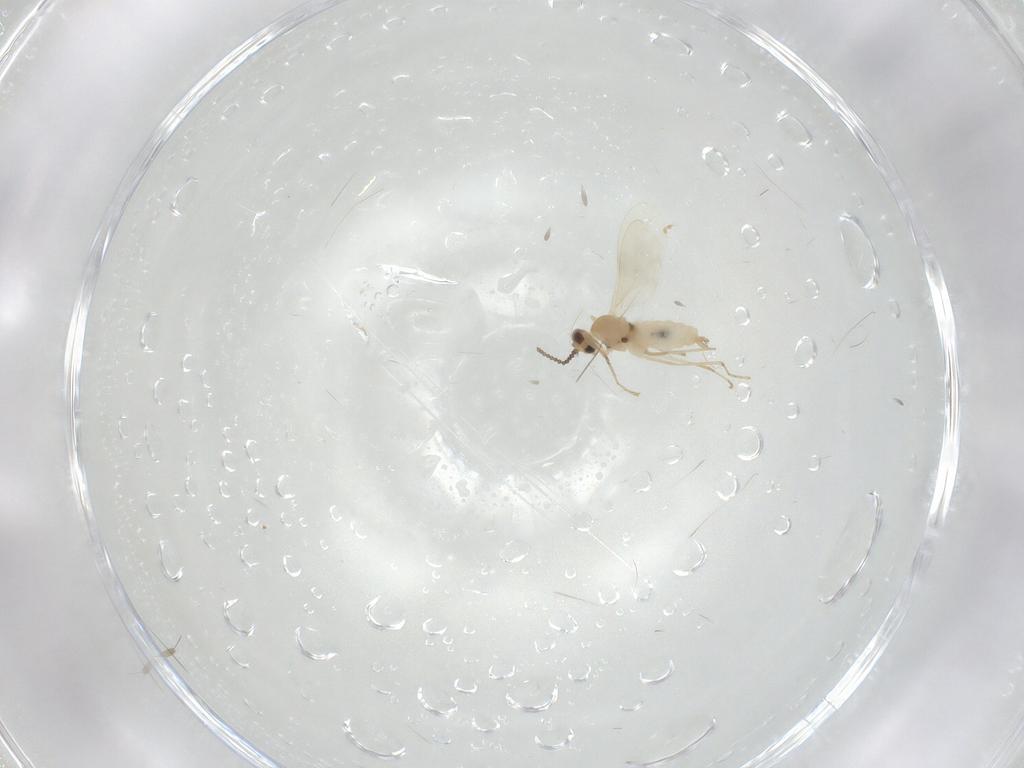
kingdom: Animalia
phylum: Arthropoda
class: Insecta
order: Diptera
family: Cecidomyiidae
